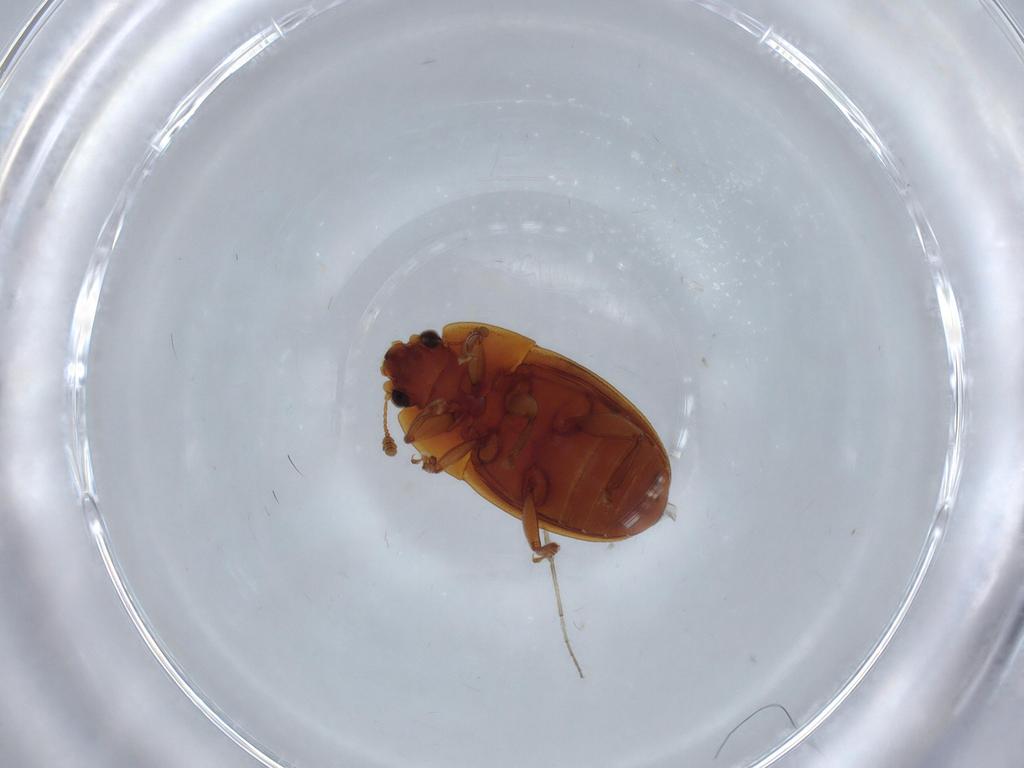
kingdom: Animalia
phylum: Arthropoda
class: Insecta
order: Coleoptera
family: Nitidulidae
